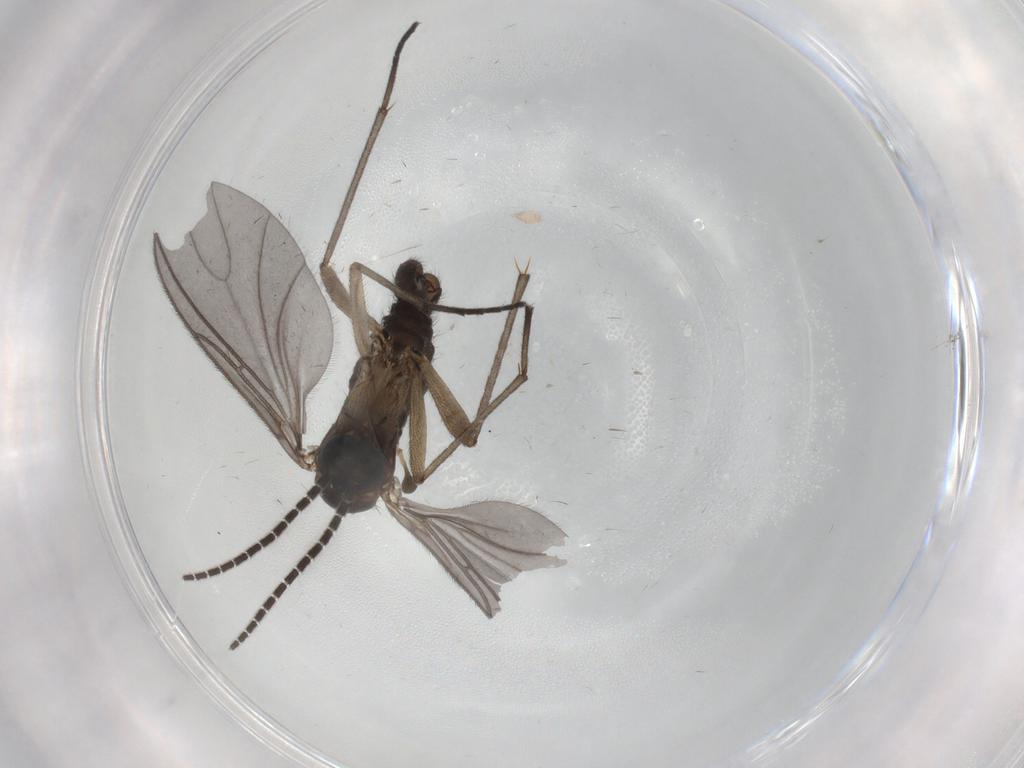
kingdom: Animalia
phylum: Arthropoda
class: Insecta
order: Diptera
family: Sciaridae
